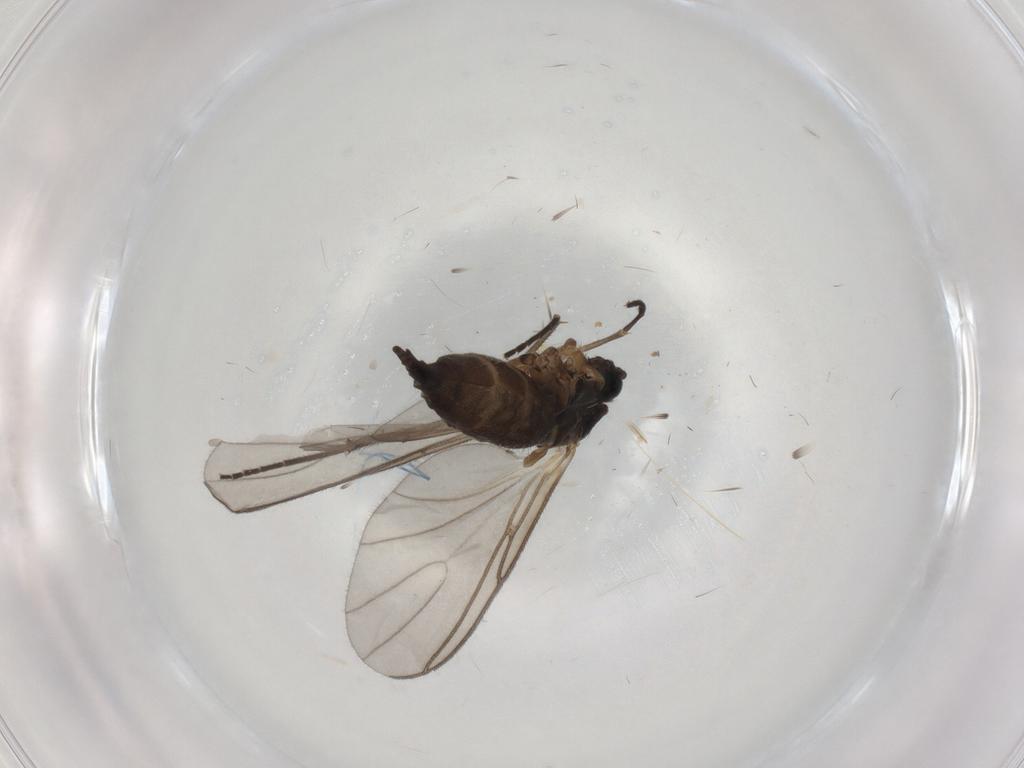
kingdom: Animalia
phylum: Arthropoda
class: Insecta
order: Diptera
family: Sciaridae
